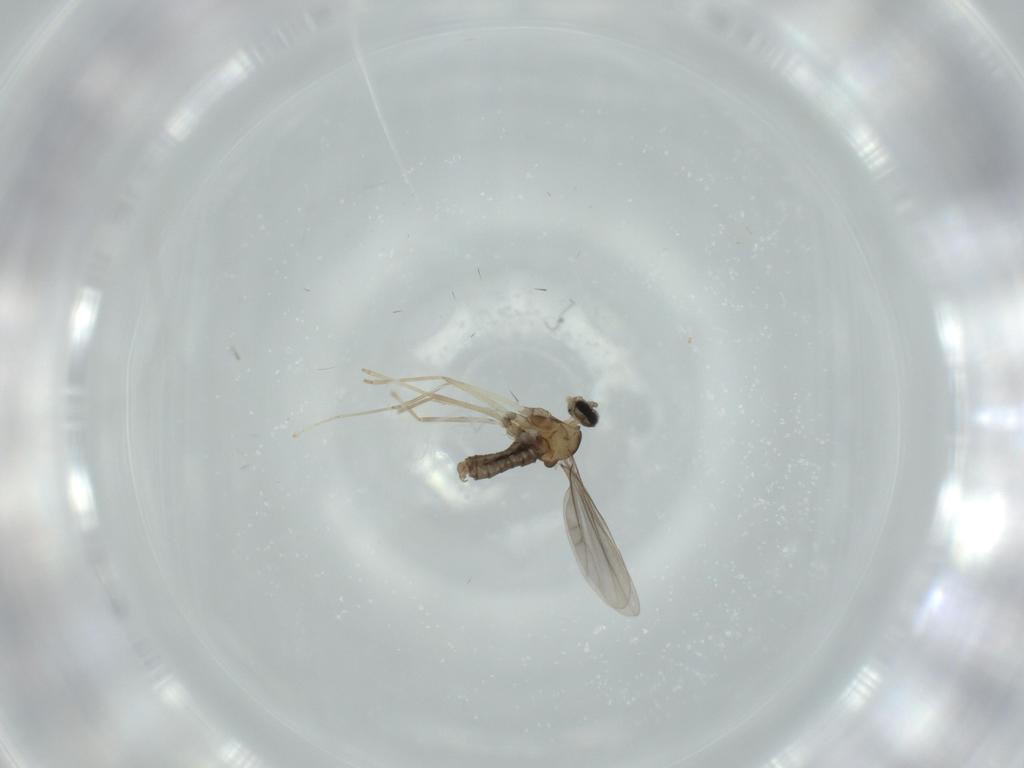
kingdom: Animalia
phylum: Arthropoda
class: Insecta
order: Diptera
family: Cecidomyiidae
